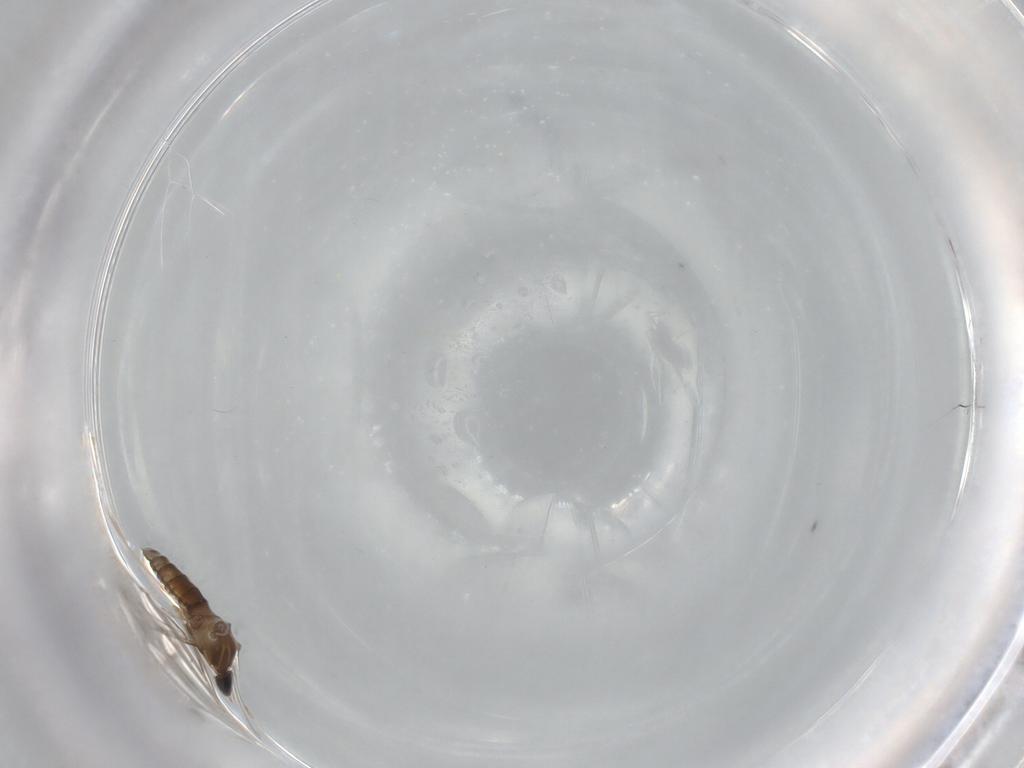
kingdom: Animalia
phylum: Arthropoda
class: Insecta
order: Diptera
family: Cecidomyiidae
